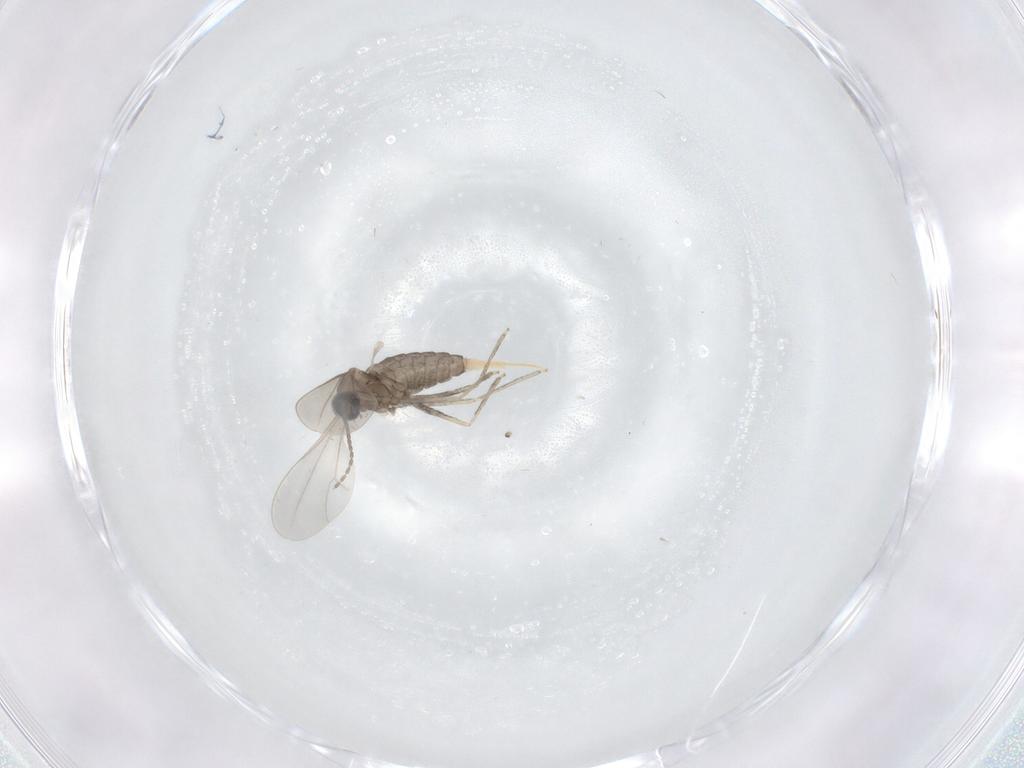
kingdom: Animalia
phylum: Arthropoda
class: Insecta
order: Diptera
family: Cecidomyiidae
